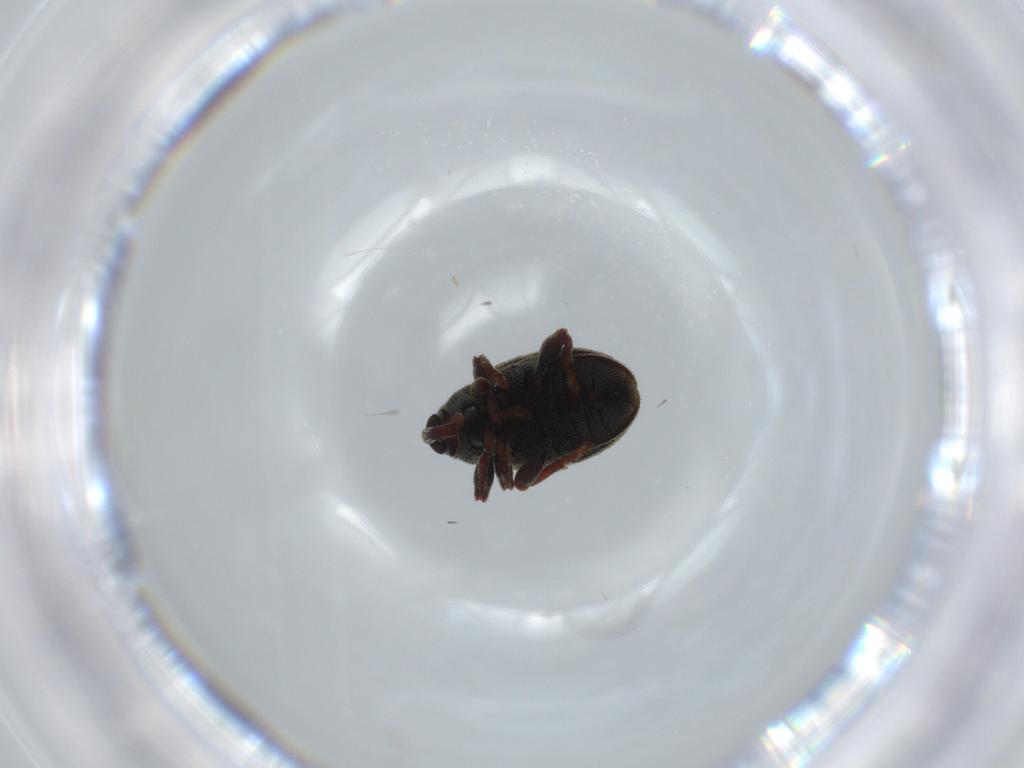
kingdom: Animalia
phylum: Arthropoda
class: Insecta
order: Coleoptera
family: Curculionidae
